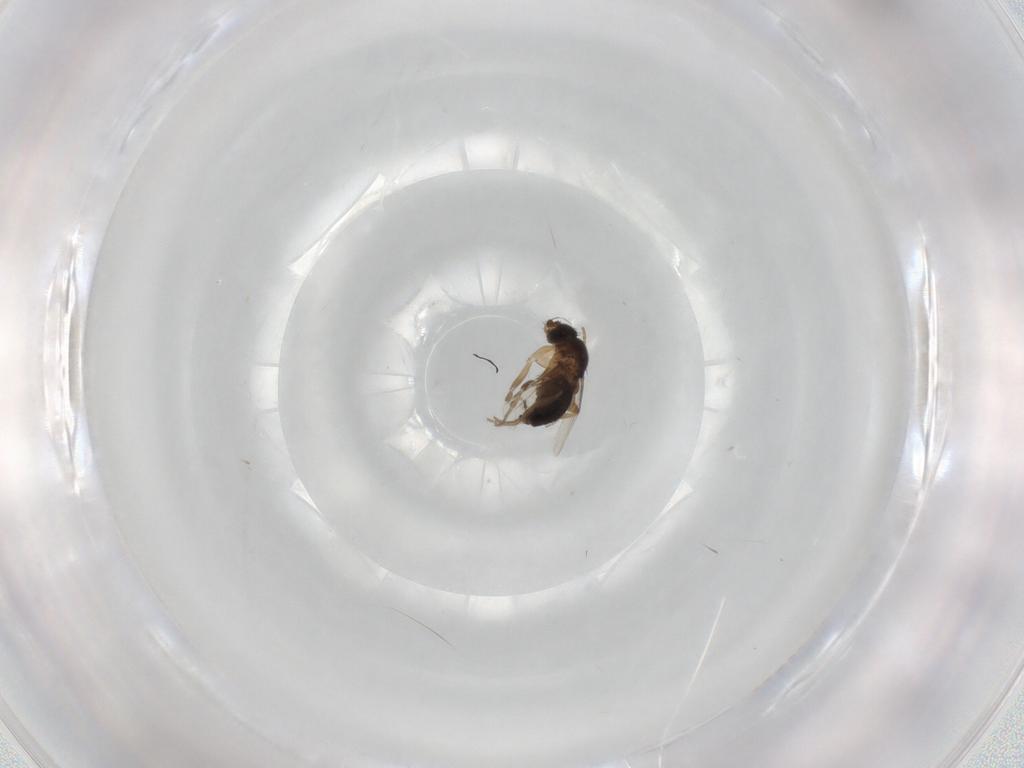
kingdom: Animalia
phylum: Arthropoda
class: Insecta
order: Diptera
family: Phoridae
